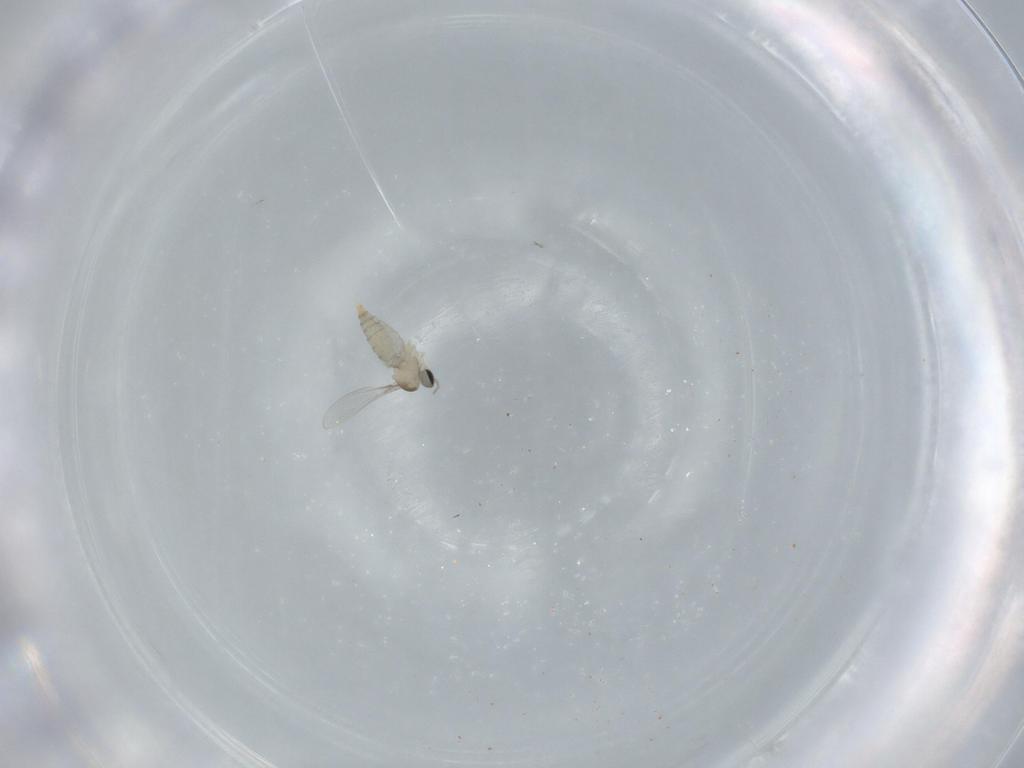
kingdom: Animalia
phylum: Arthropoda
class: Insecta
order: Diptera
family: Cecidomyiidae
